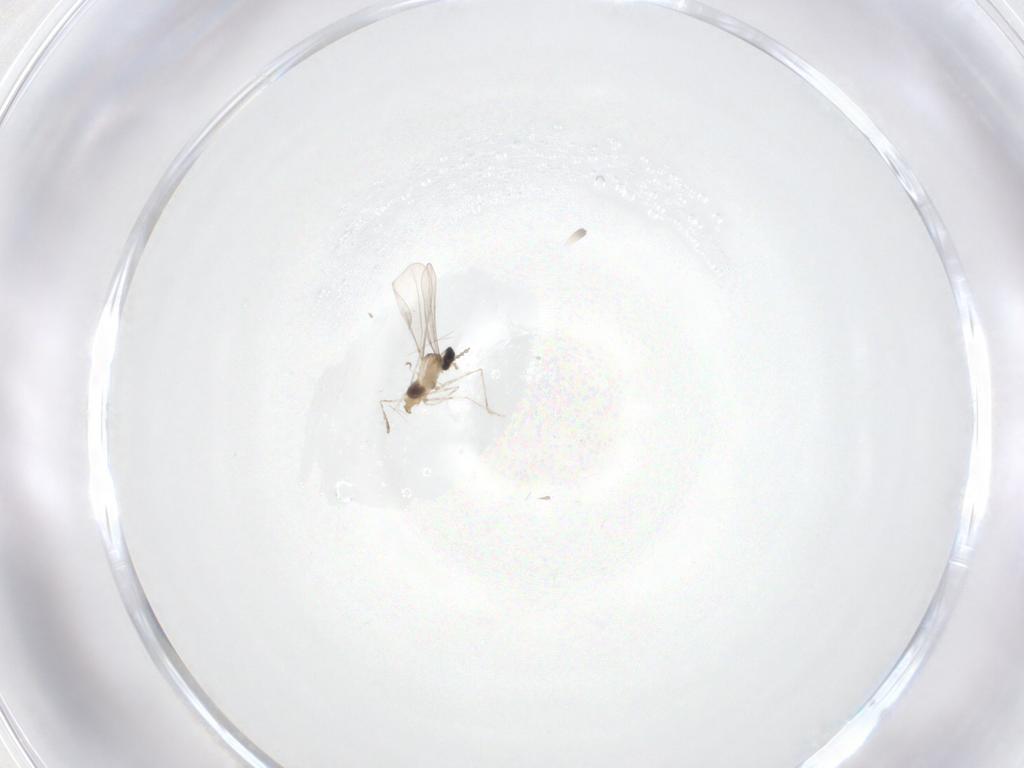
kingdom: Animalia
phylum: Arthropoda
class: Insecta
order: Diptera
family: Cecidomyiidae
